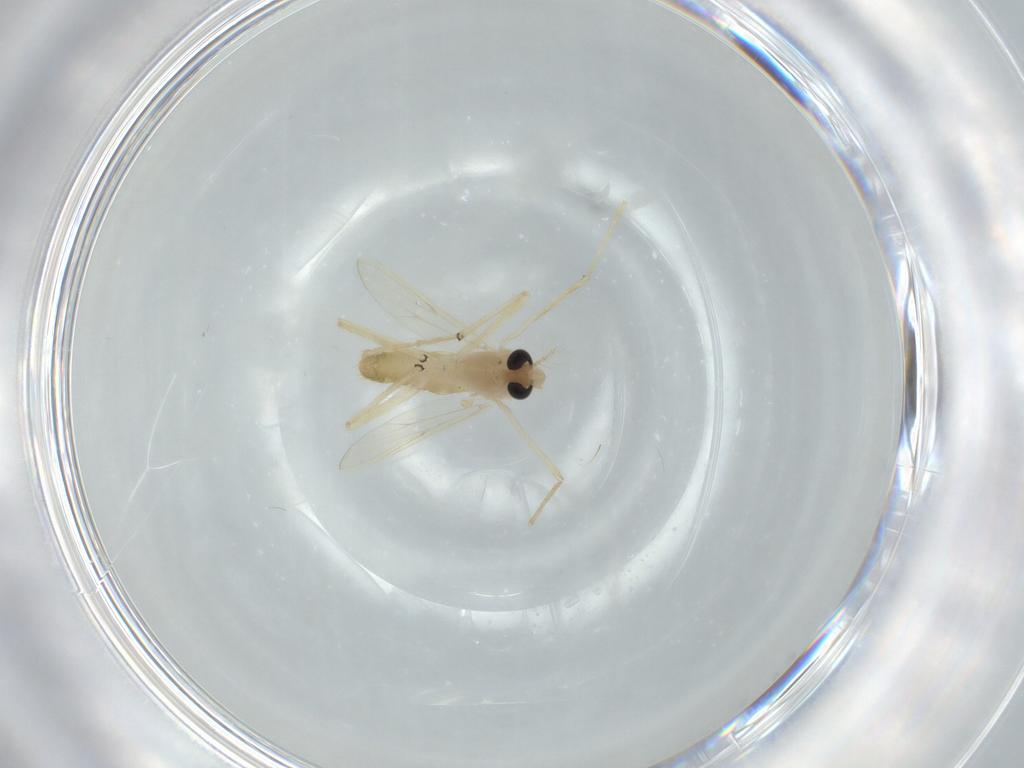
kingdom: Animalia
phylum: Arthropoda
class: Insecta
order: Diptera
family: Chironomidae
